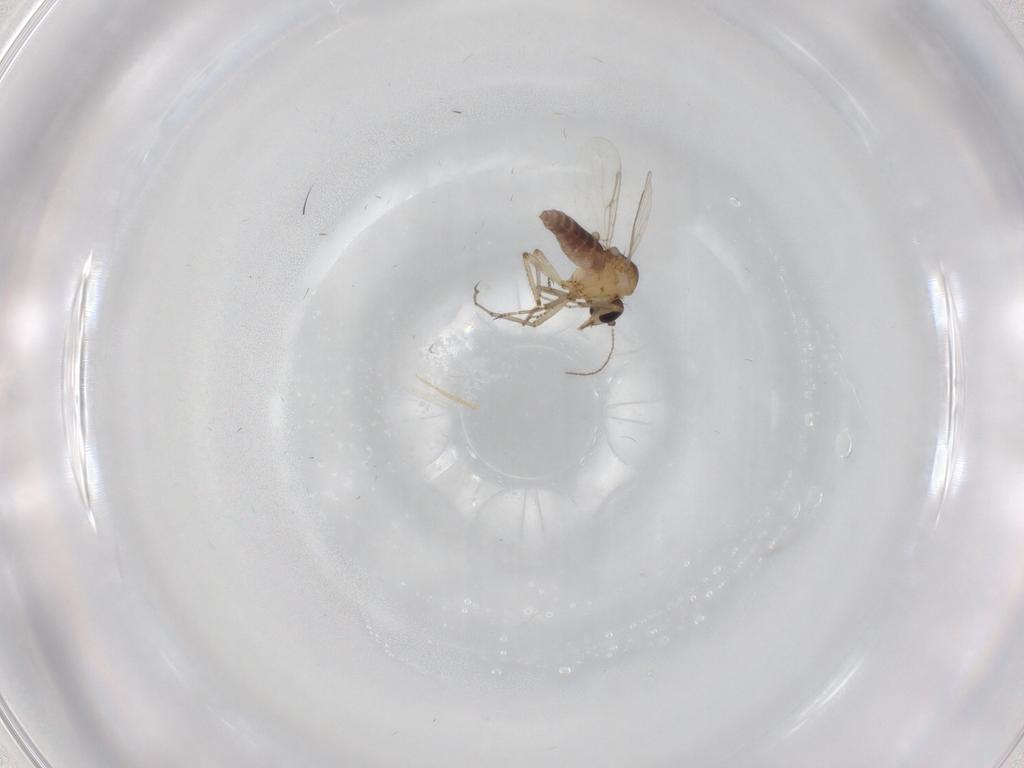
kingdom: Animalia
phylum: Arthropoda
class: Insecta
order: Diptera
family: Ceratopogonidae
